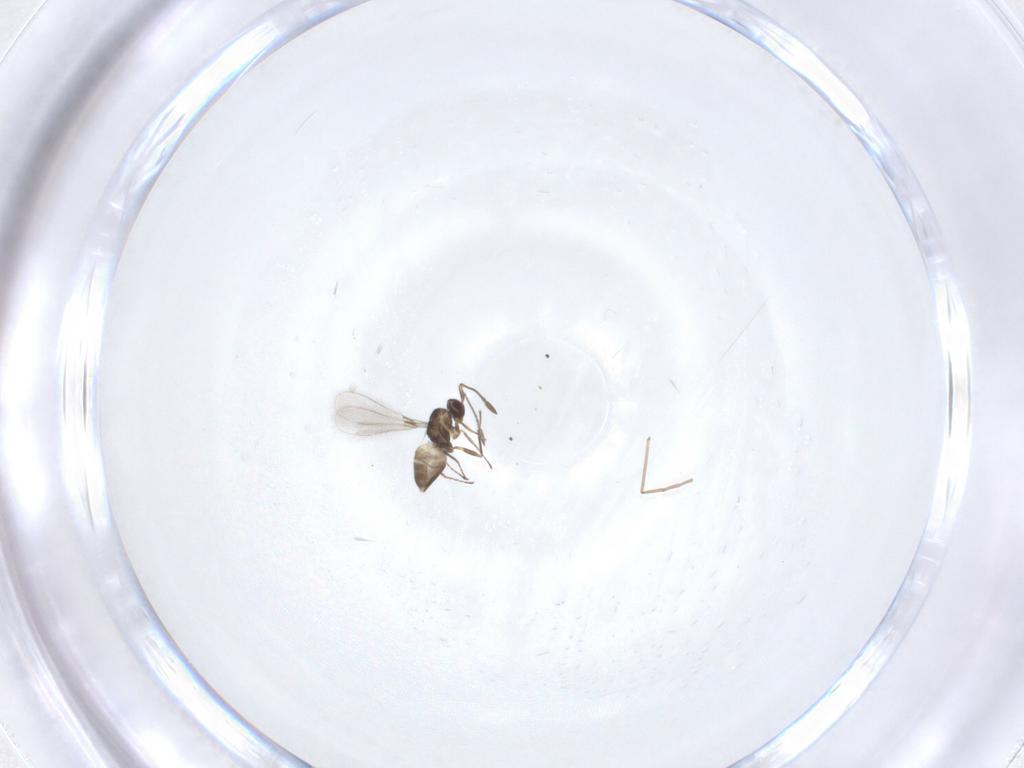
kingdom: Animalia
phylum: Arthropoda
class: Insecta
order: Hymenoptera
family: Mymaridae
